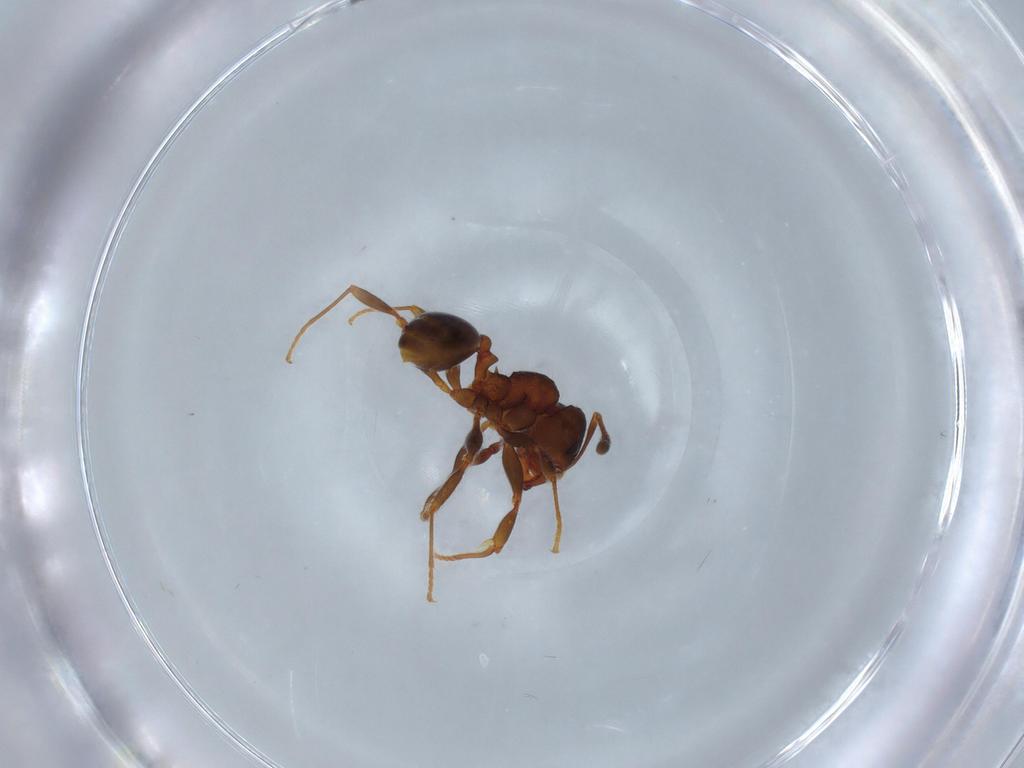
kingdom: Animalia
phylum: Arthropoda
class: Insecta
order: Hymenoptera
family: Formicidae
